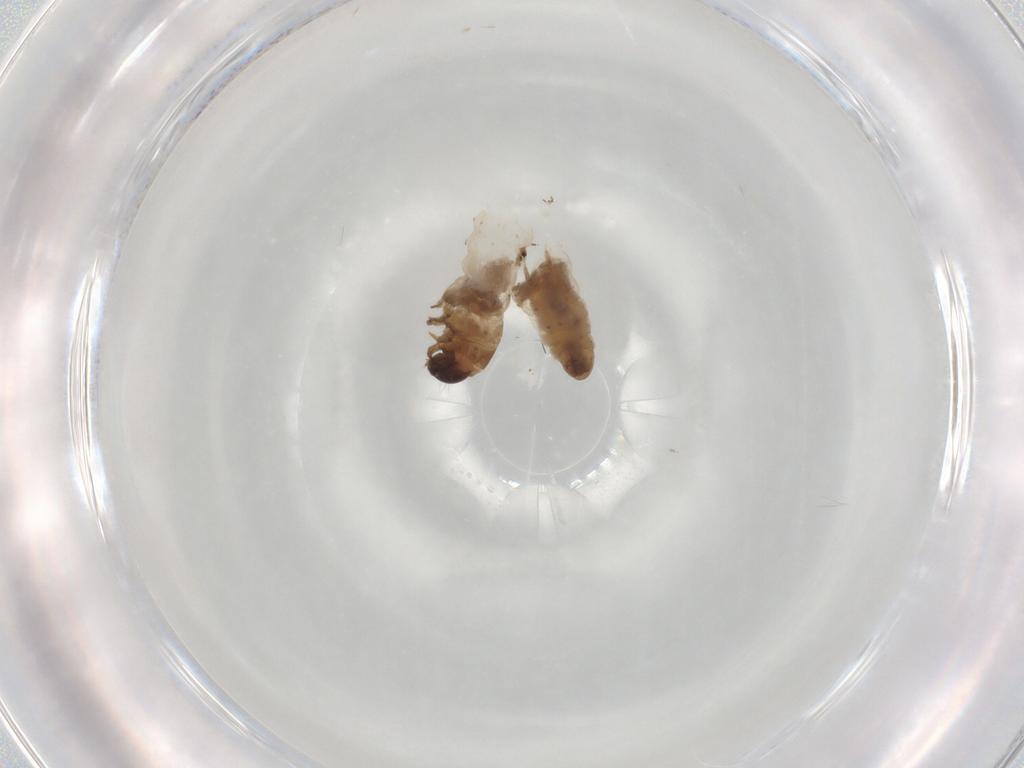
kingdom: Animalia
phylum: Arthropoda
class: Insecta
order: Lepidoptera
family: Psychidae
